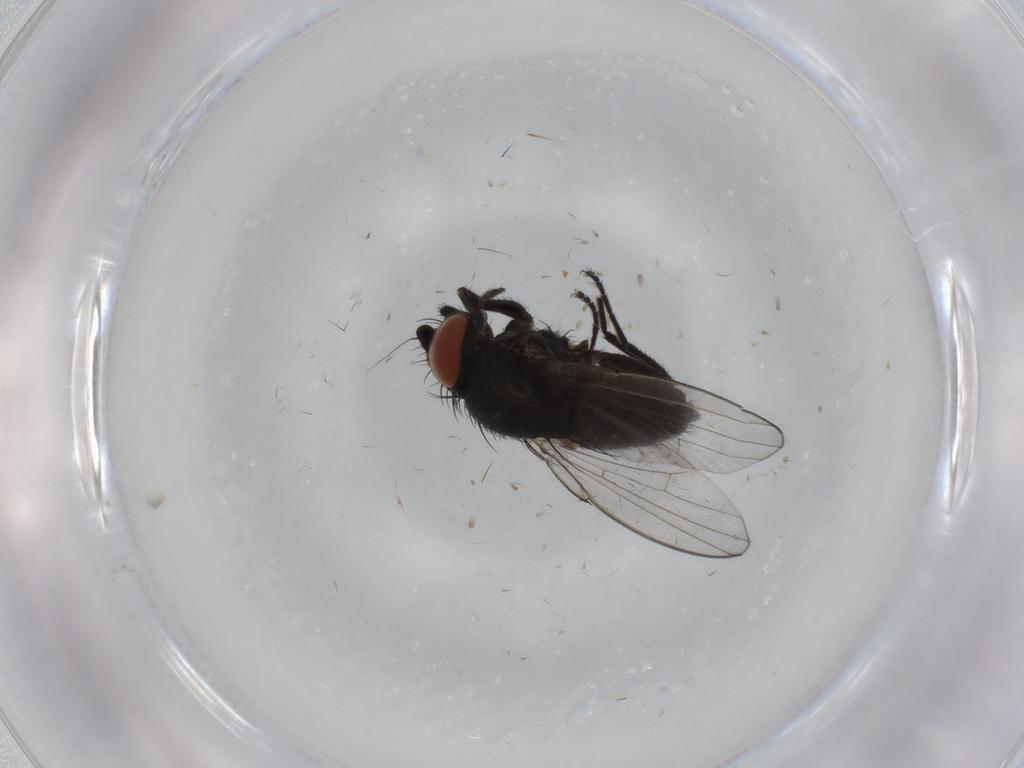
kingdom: Animalia
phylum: Arthropoda
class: Insecta
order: Diptera
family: Milichiidae
